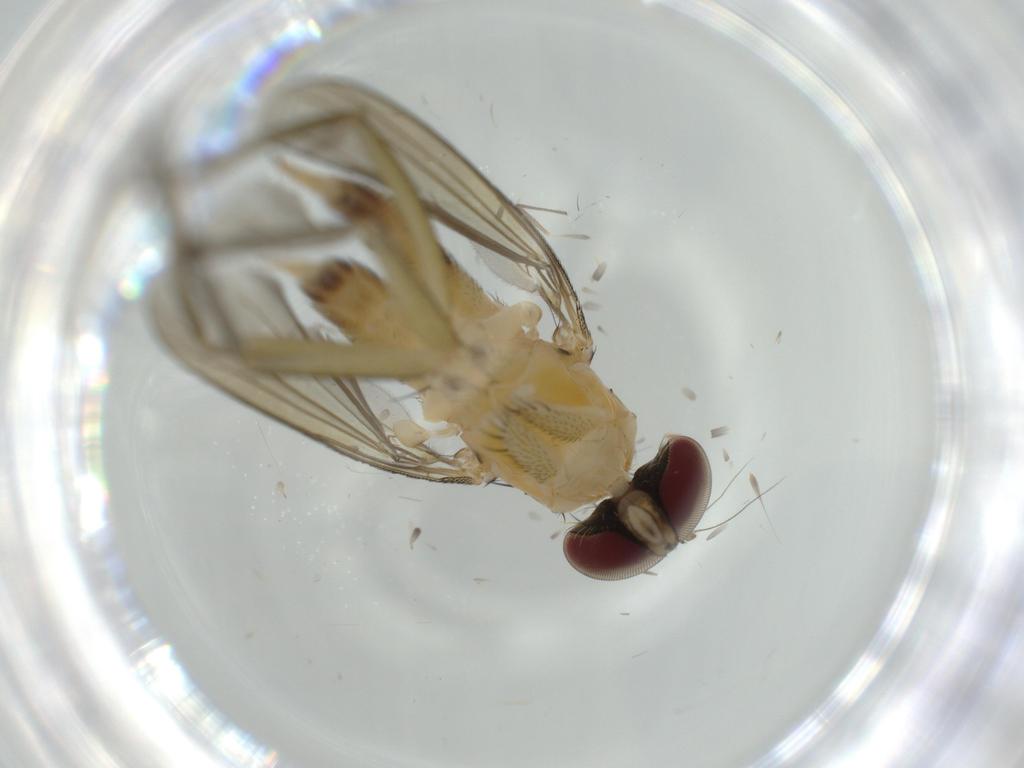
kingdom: Animalia
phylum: Arthropoda
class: Insecta
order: Diptera
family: Dolichopodidae
